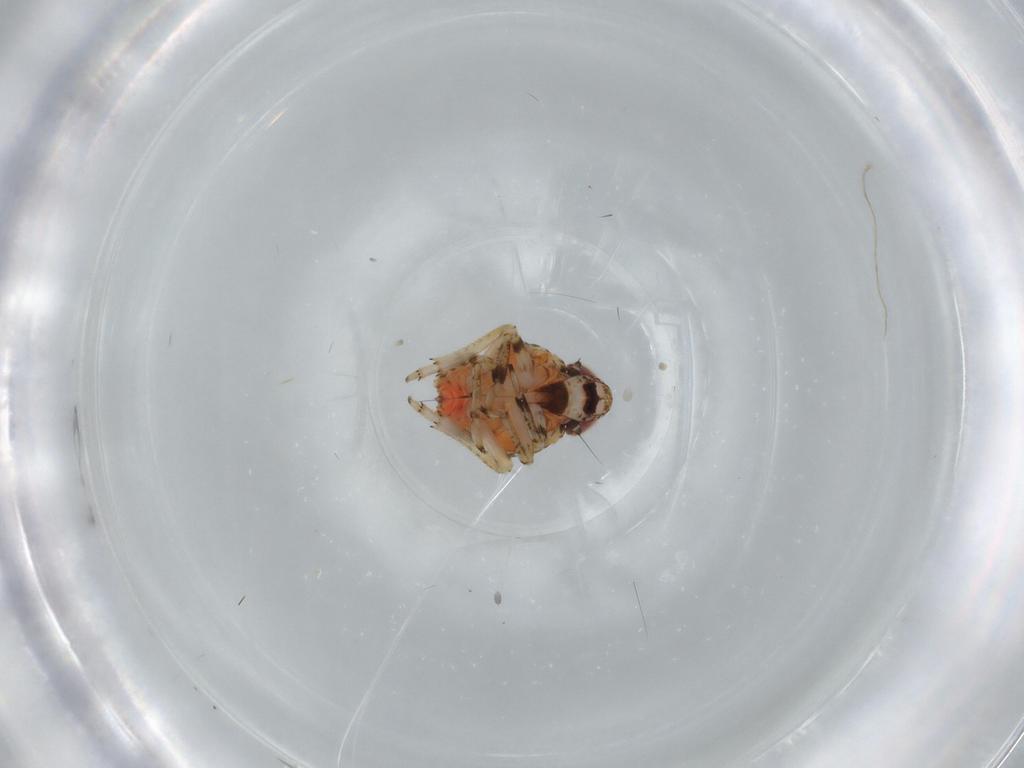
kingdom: Animalia
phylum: Arthropoda
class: Insecta
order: Hemiptera
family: Issidae
